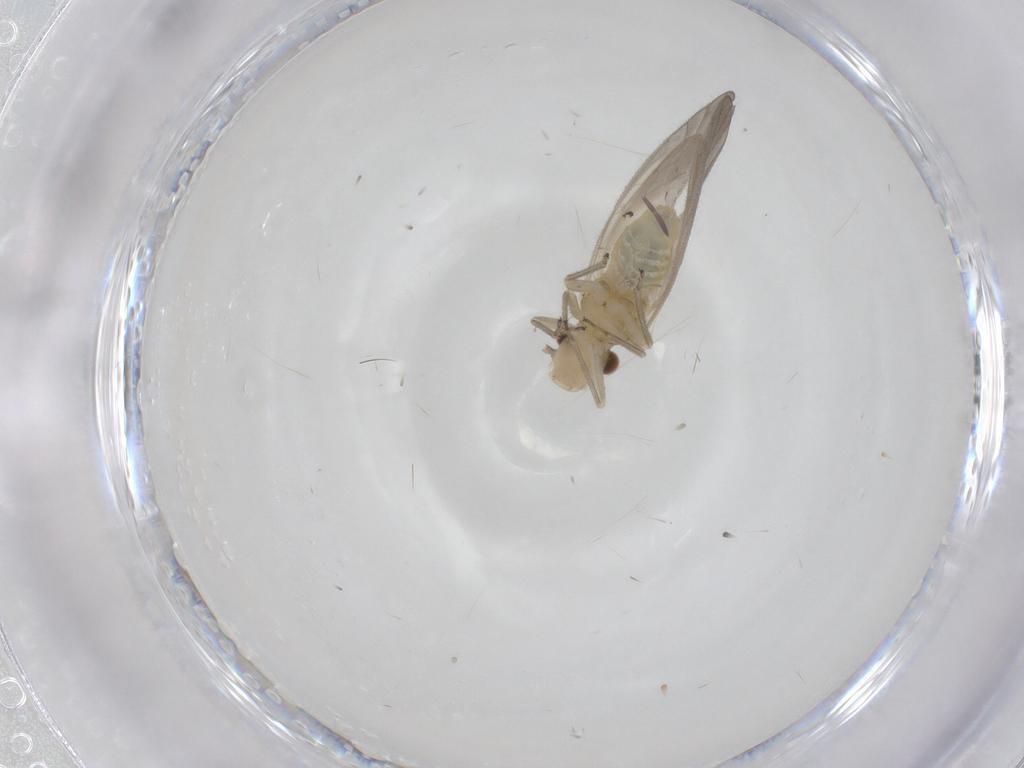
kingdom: Animalia
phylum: Arthropoda
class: Insecta
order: Psocodea
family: Caeciliusidae
